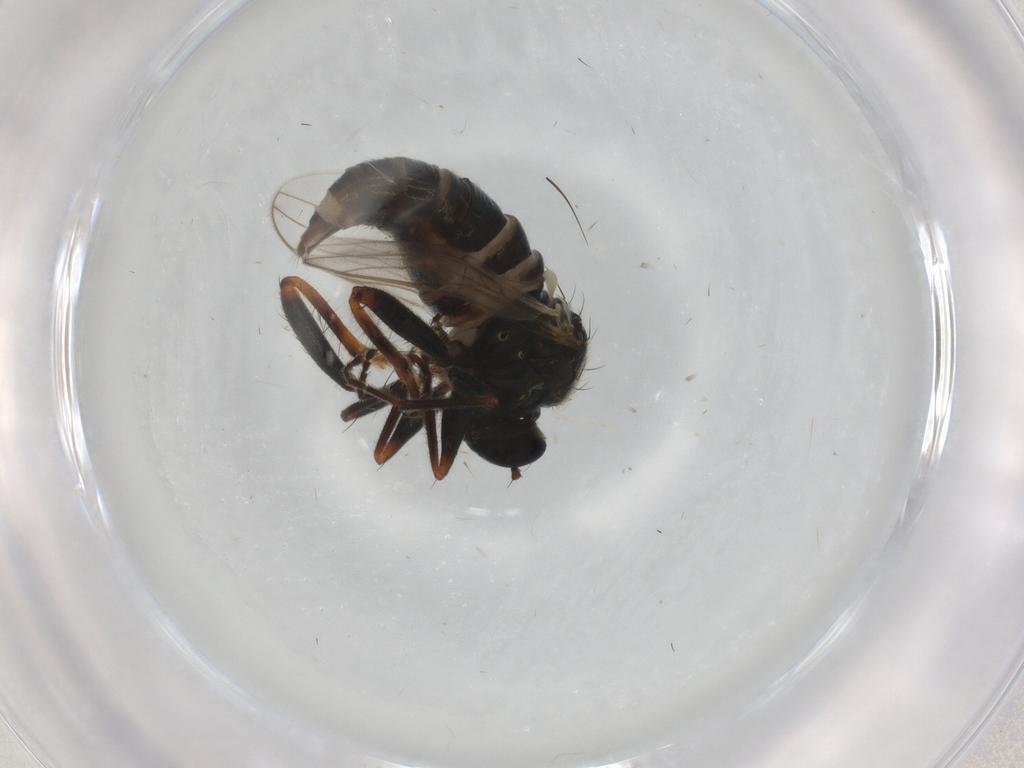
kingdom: Animalia
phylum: Arthropoda
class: Insecta
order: Diptera
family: Hybotidae
